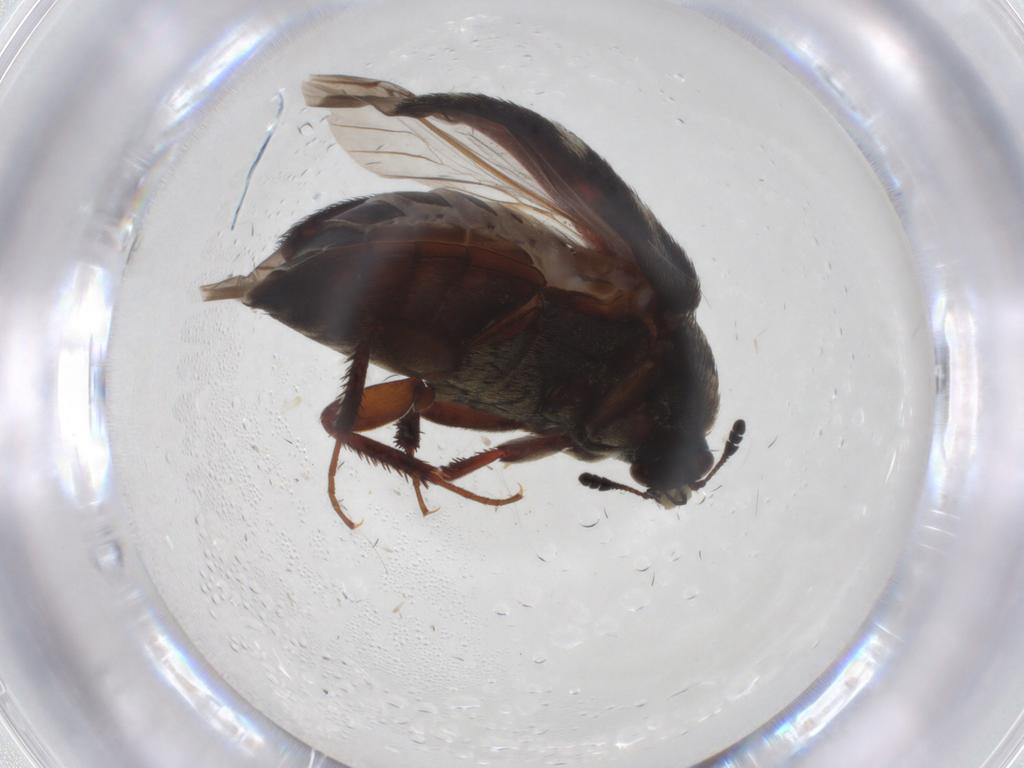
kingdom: Animalia
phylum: Arthropoda
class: Insecta
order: Coleoptera
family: Dermestidae
